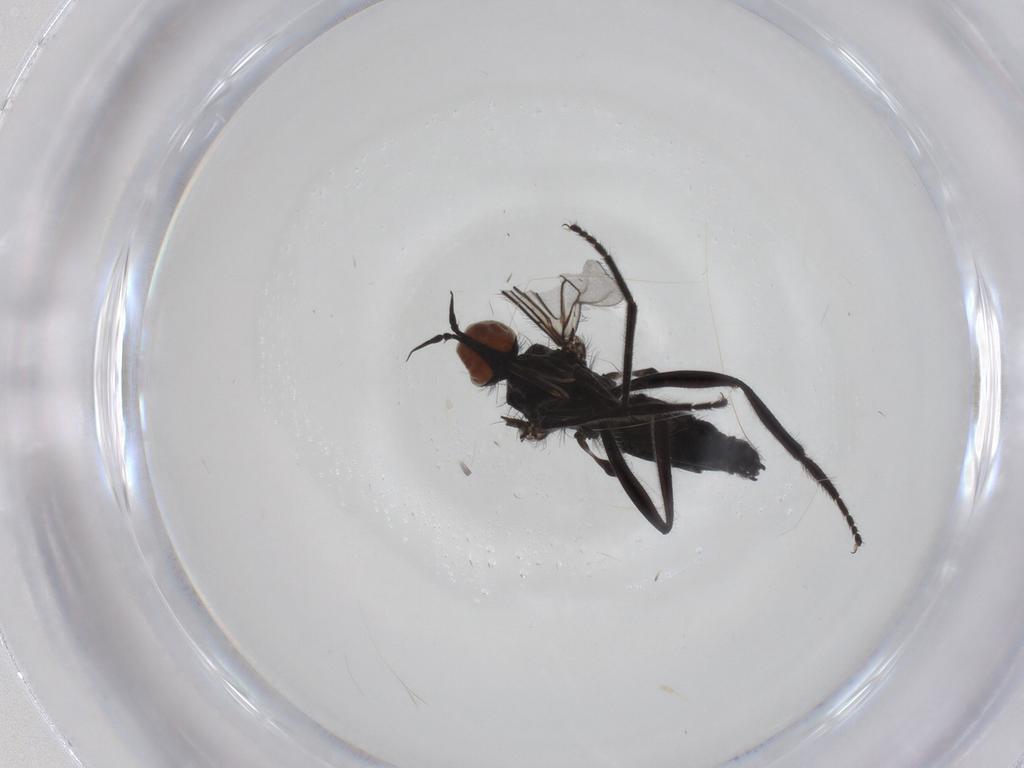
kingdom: Animalia
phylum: Arthropoda
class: Insecta
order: Diptera
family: Empididae
